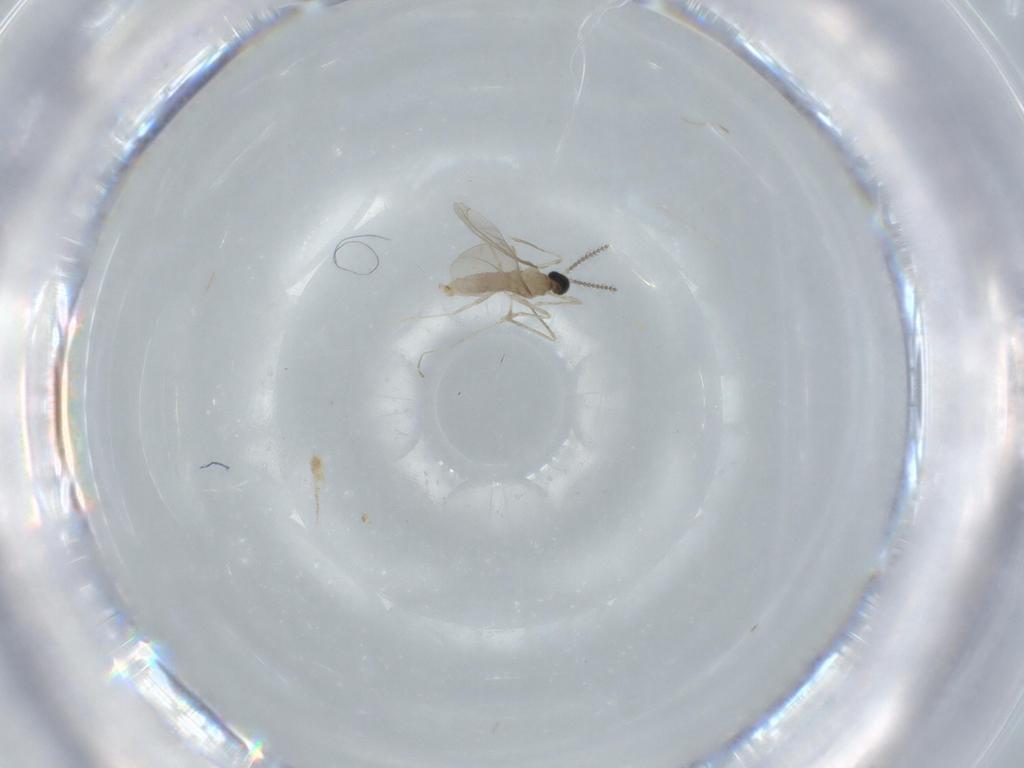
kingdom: Animalia
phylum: Arthropoda
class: Insecta
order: Diptera
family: Cecidomyiidae
